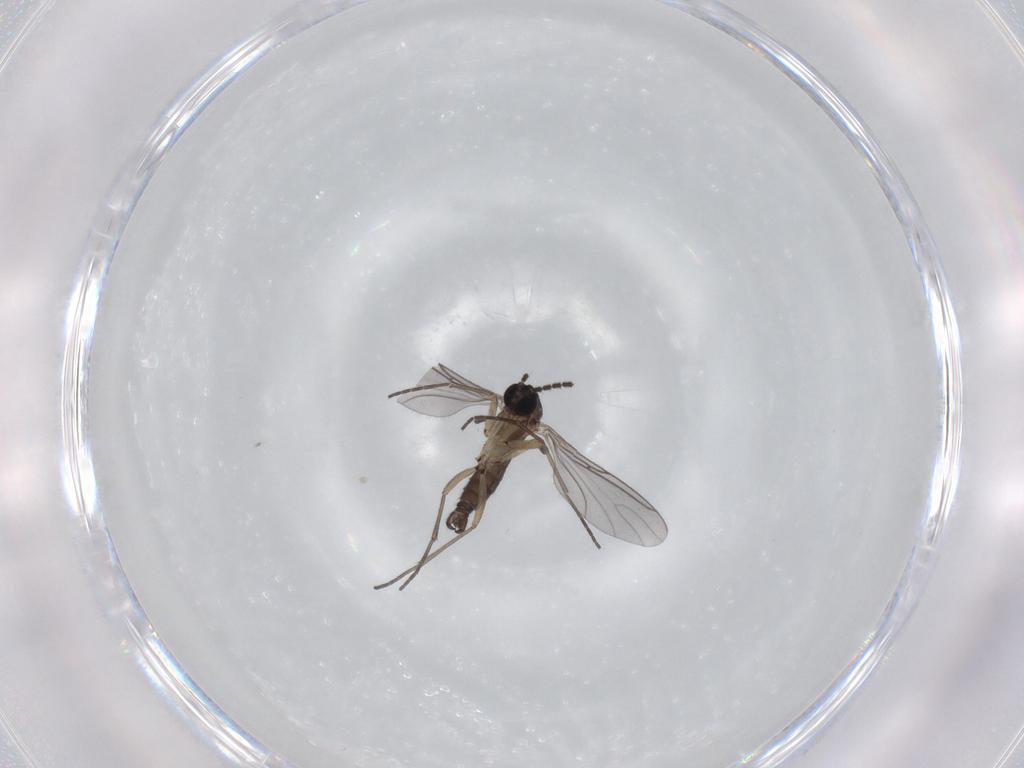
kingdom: Animalia
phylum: Arthropoda
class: Insecta
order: Diptera
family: Sciaridae
